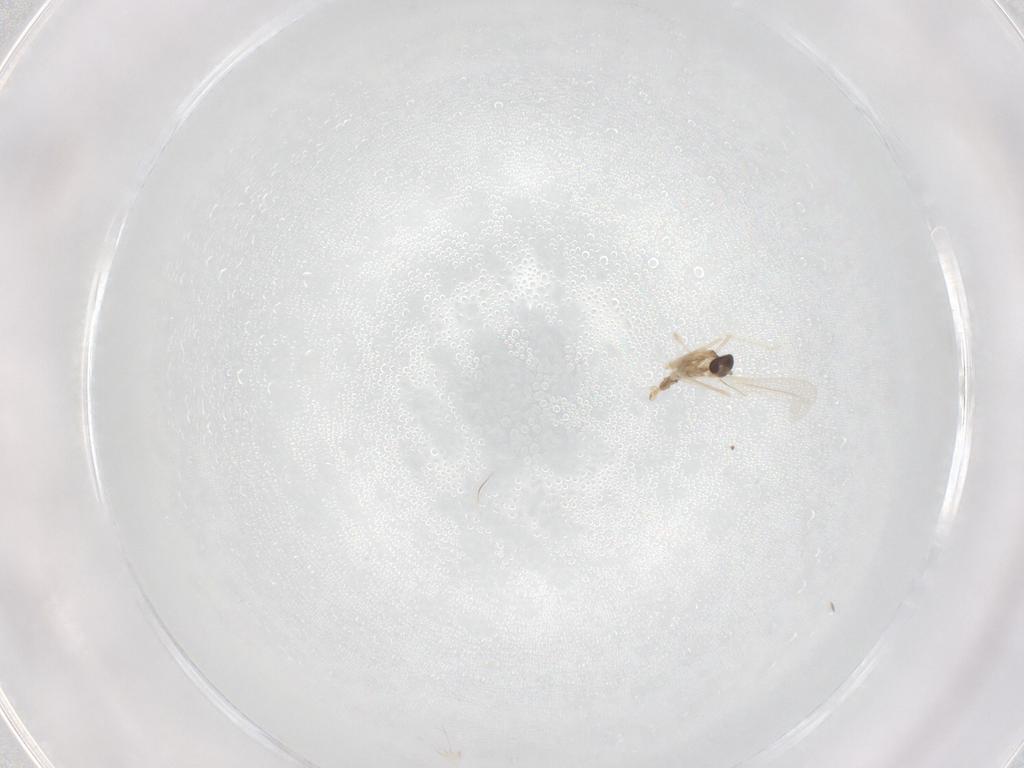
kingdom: Animalia
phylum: Arthropoda
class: Insecta
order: Diptera
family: Cecidomyiidae
